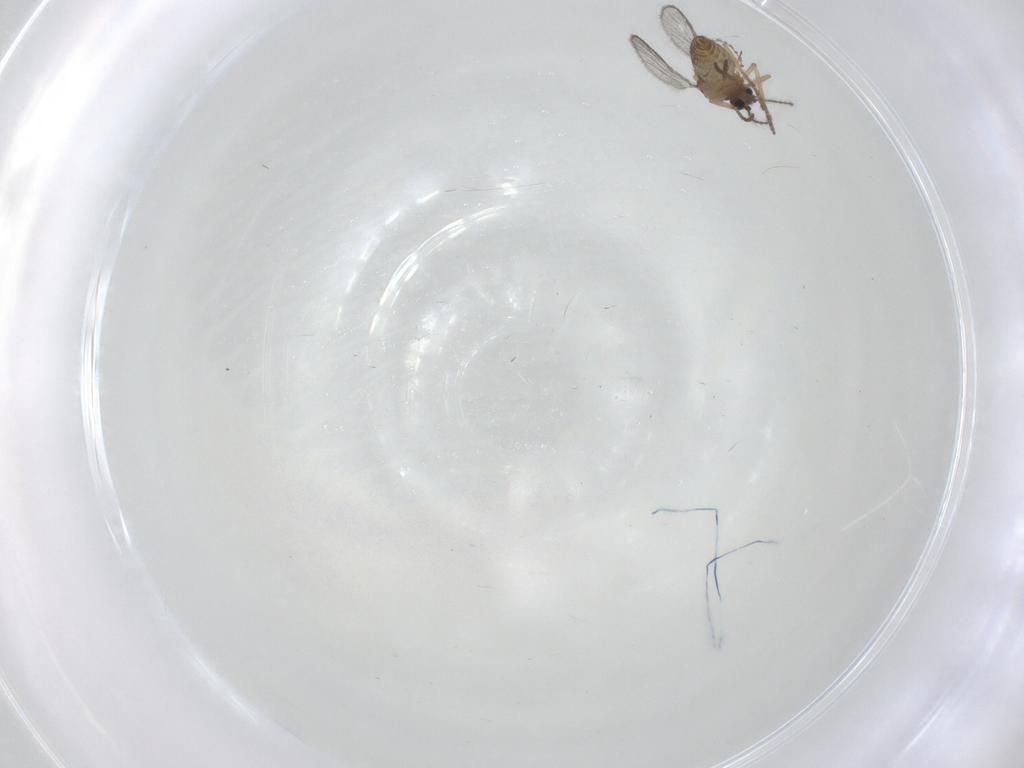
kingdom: Animalia
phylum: Arthropoda
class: Insecta
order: Diptera
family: Ceratopogonidae
